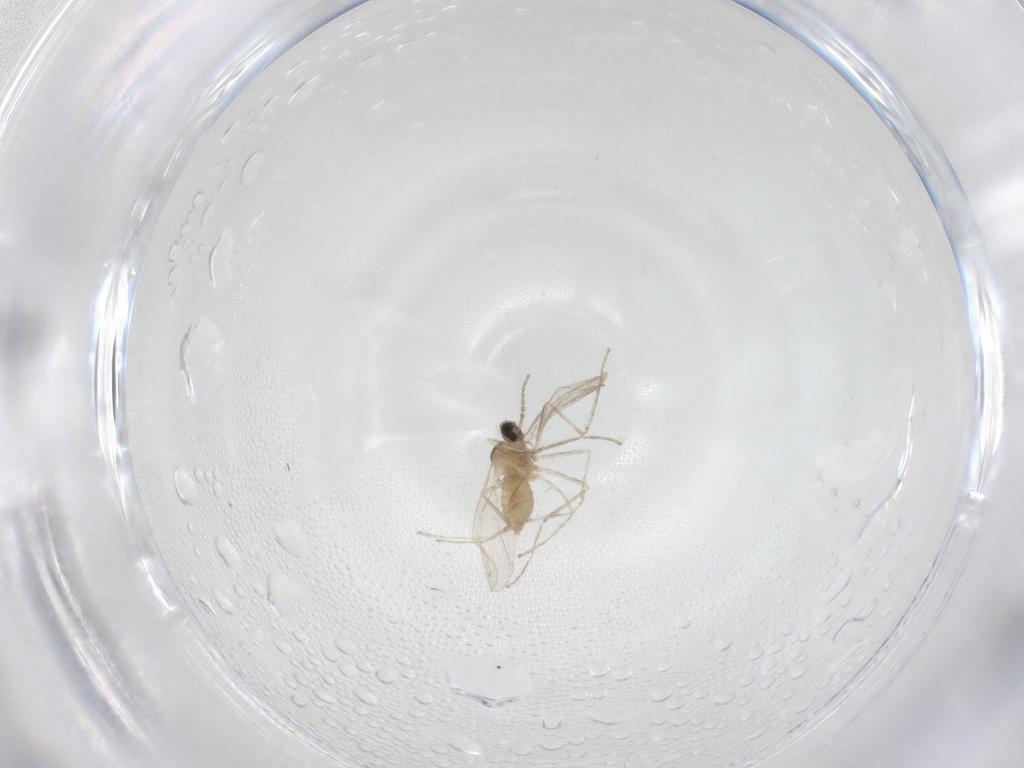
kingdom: Animalia
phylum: Arthropoda
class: Insecta
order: Diptera
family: Cecidomyiidae
